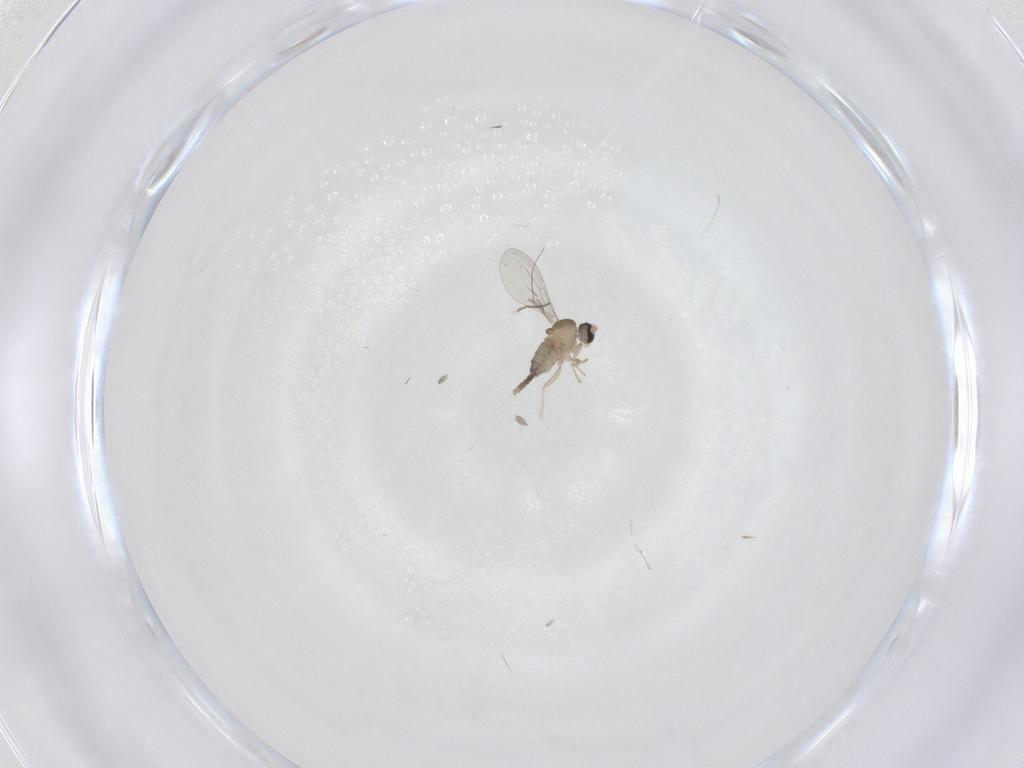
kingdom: Animalia
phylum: Arthropoda
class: Insecta
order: Diptera
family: Cecidomyiidae
